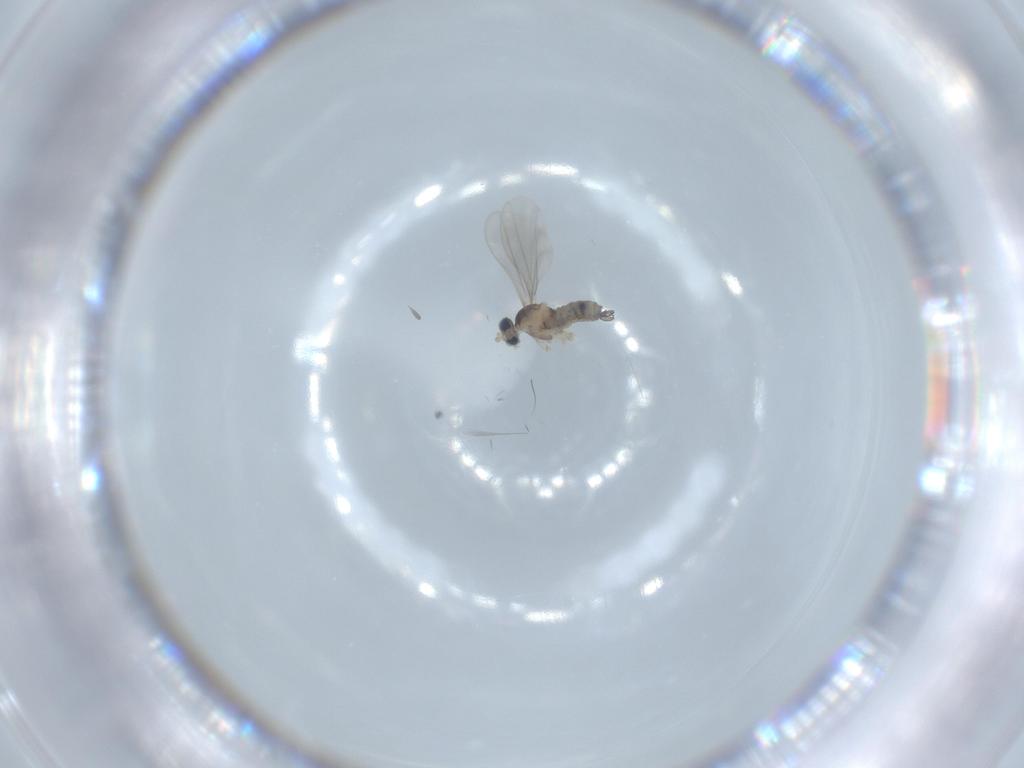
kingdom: Animalia
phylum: Arthropoda
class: Insecta
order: Diptera
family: Cecidomyiidae
